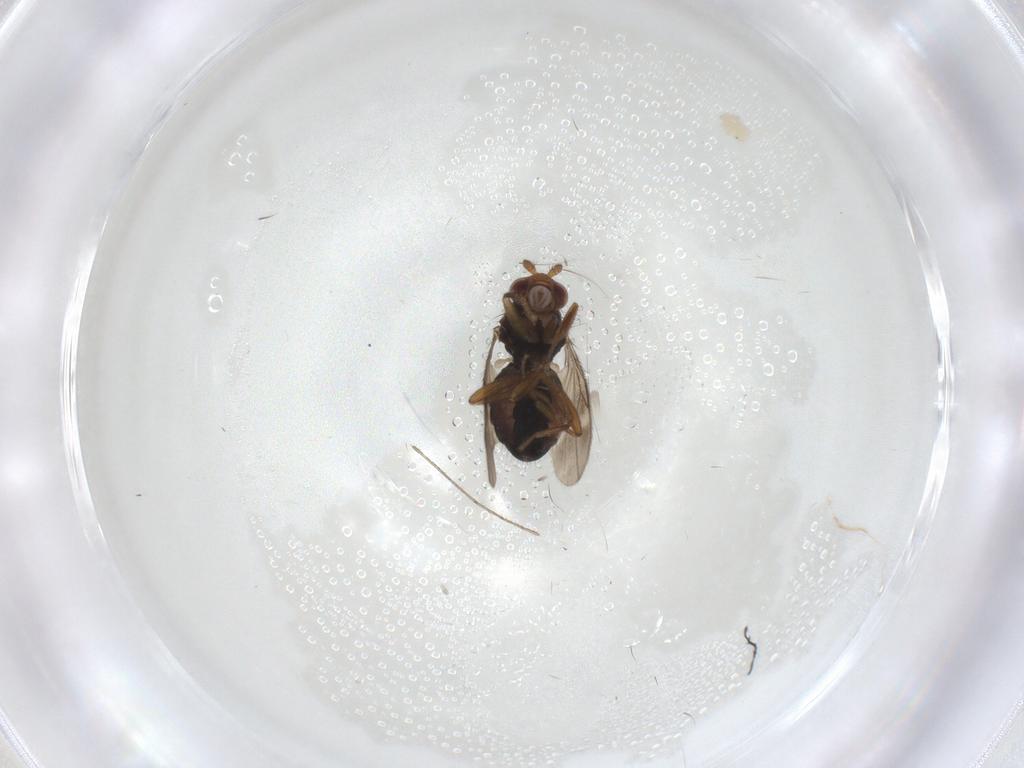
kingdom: Animalia
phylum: Arthropoda
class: Insecta
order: Diptera
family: Sphaeroceridae
